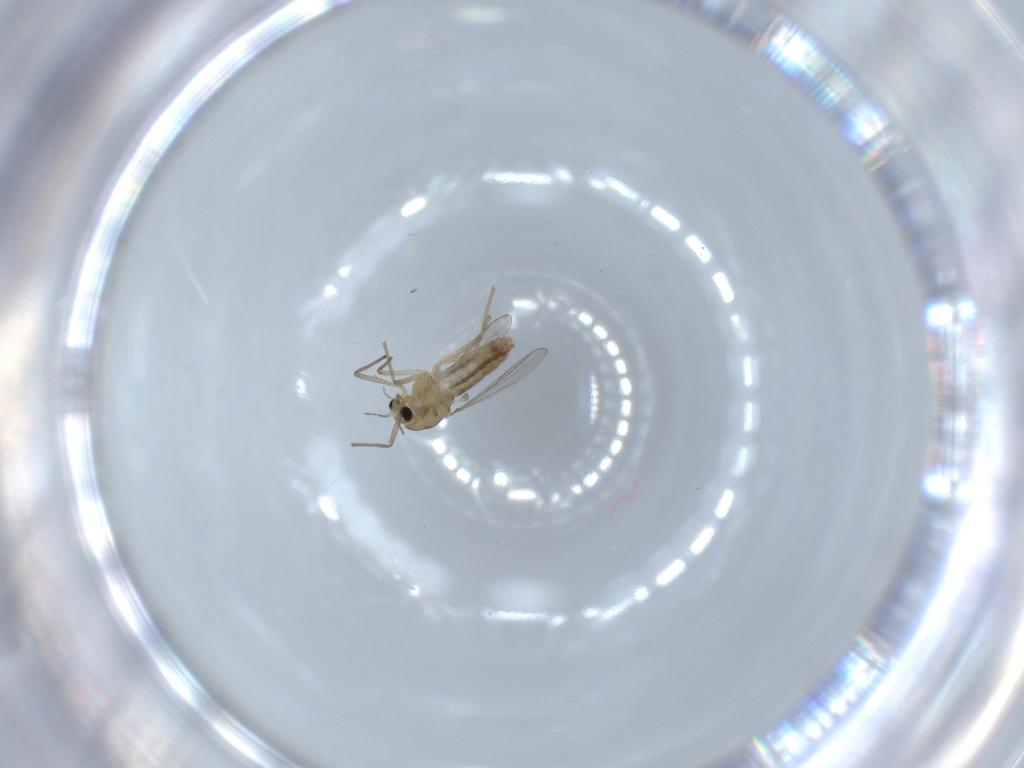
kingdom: Animalia
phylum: Arthropoda
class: Insecta
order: Diptera
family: Chironomidae
